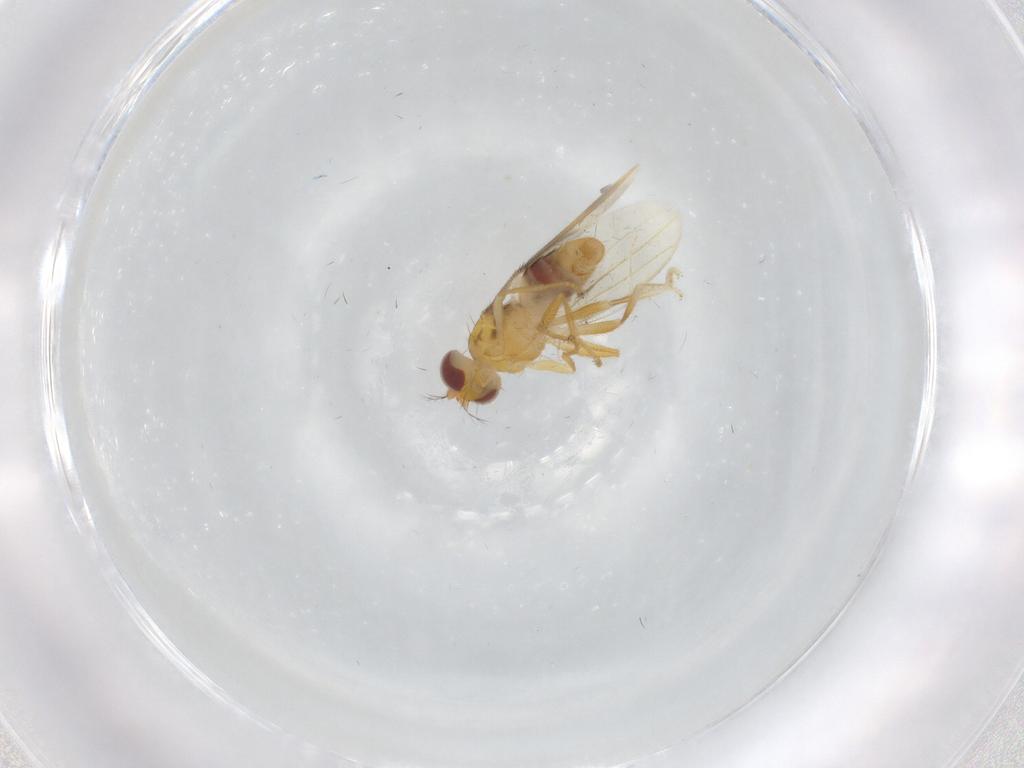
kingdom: Animalia
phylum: Arthropoda
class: Insecta
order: Diptera
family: Periscelididae
